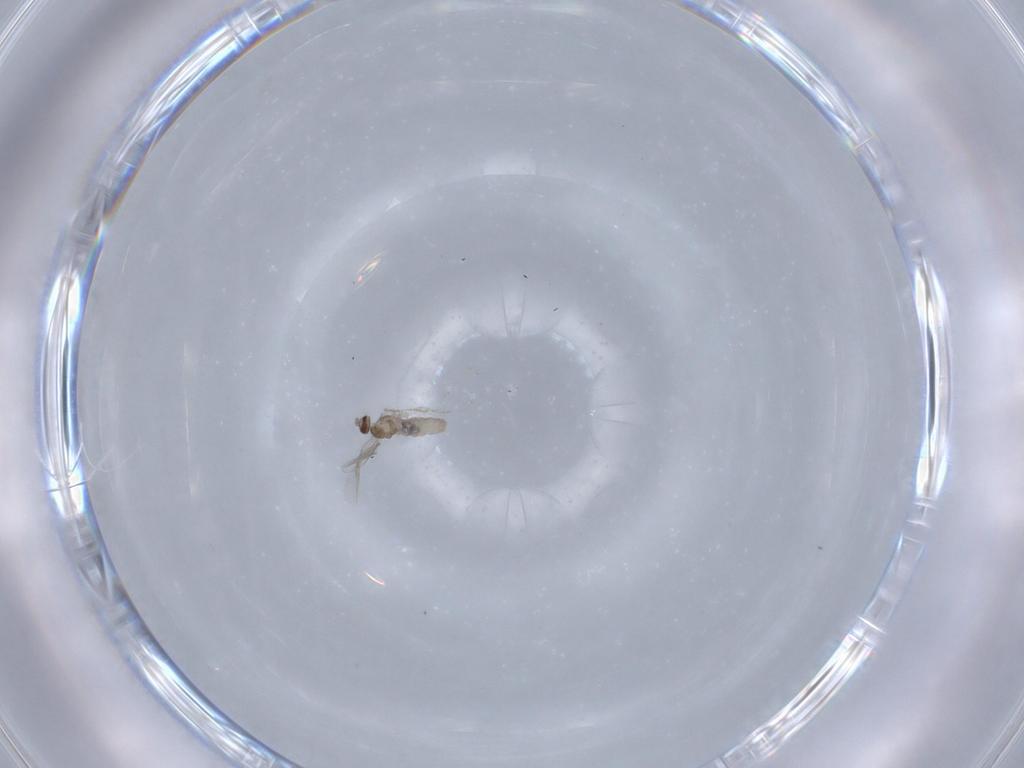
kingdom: Animalia
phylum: Arthropoda
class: Insecta
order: Diptera
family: Cecidomyiidae
